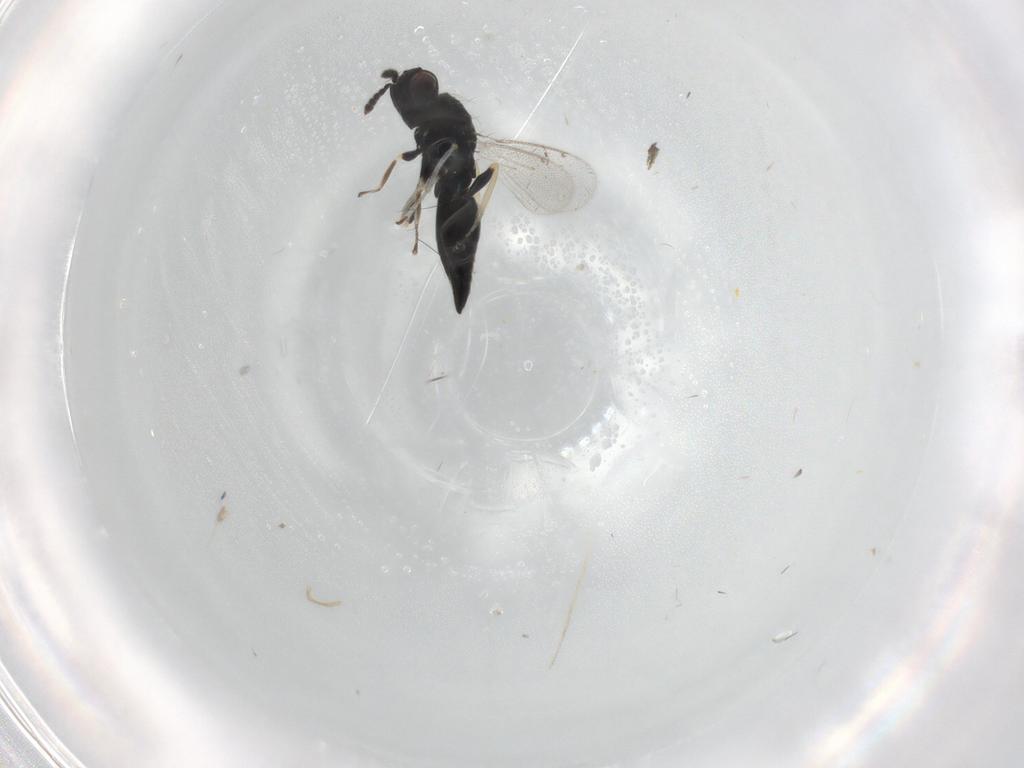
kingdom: Animalia
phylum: Arthropoda
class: Insecta
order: Hymenoptera
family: Eulophidae
